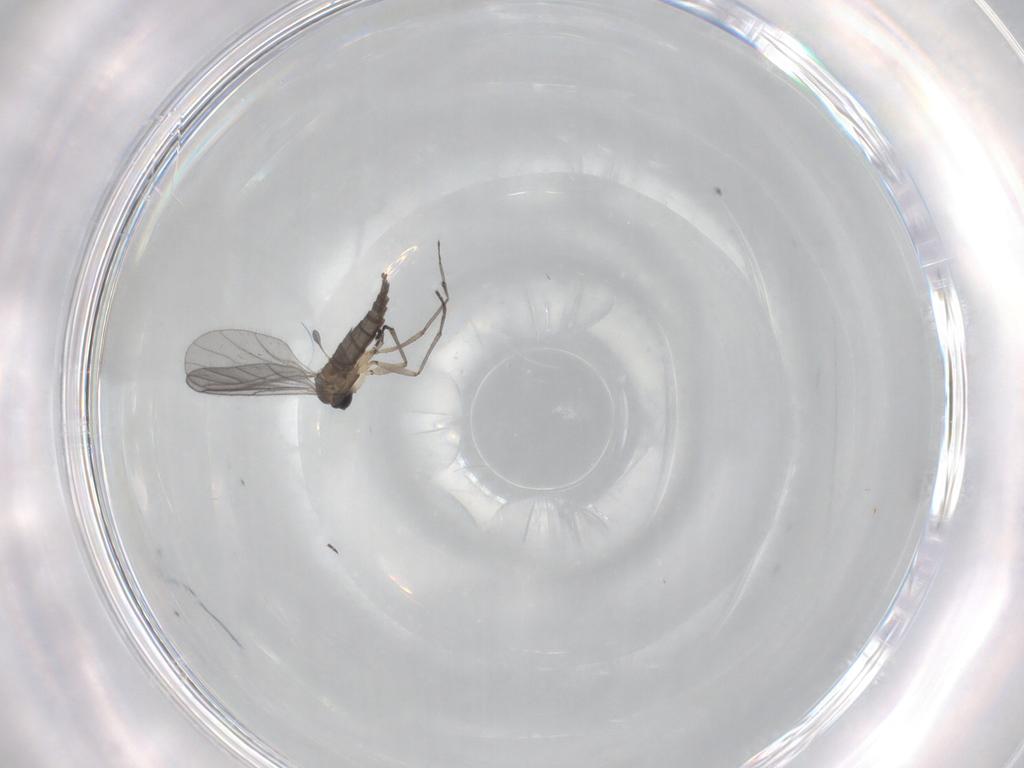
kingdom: Animalia
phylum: Arthropoda
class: Insecta
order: Diptera
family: Sciaridae
